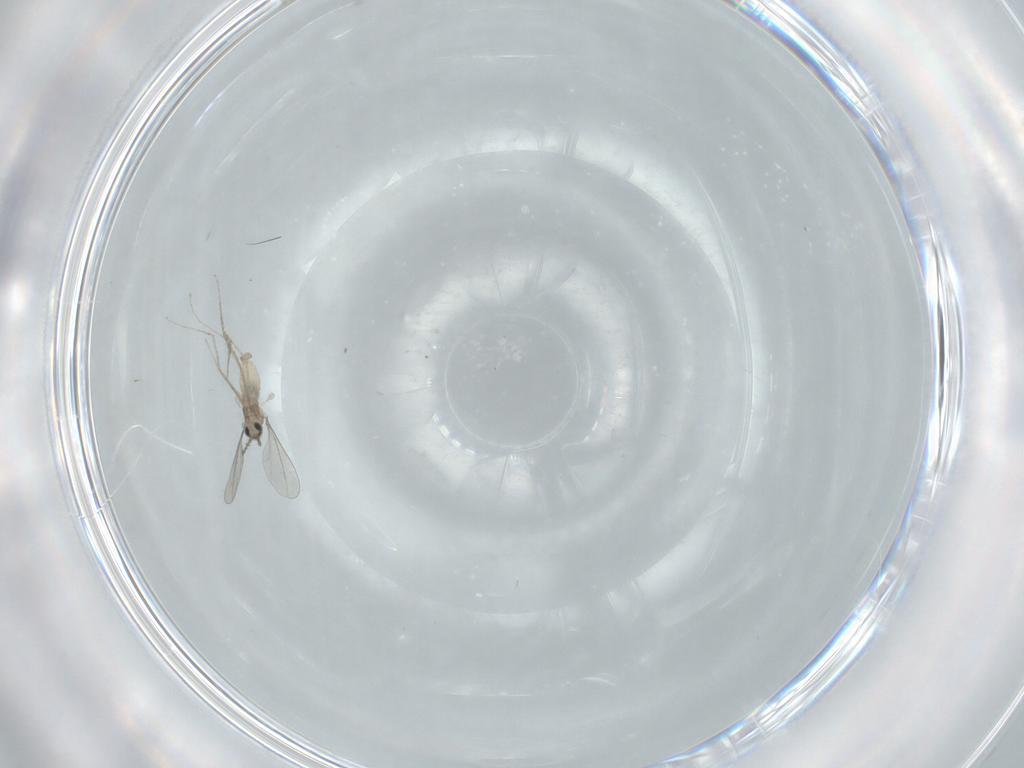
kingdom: Animalia
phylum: Arthropoda
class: Insecta
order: Diptera
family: Cecidomyiidae
